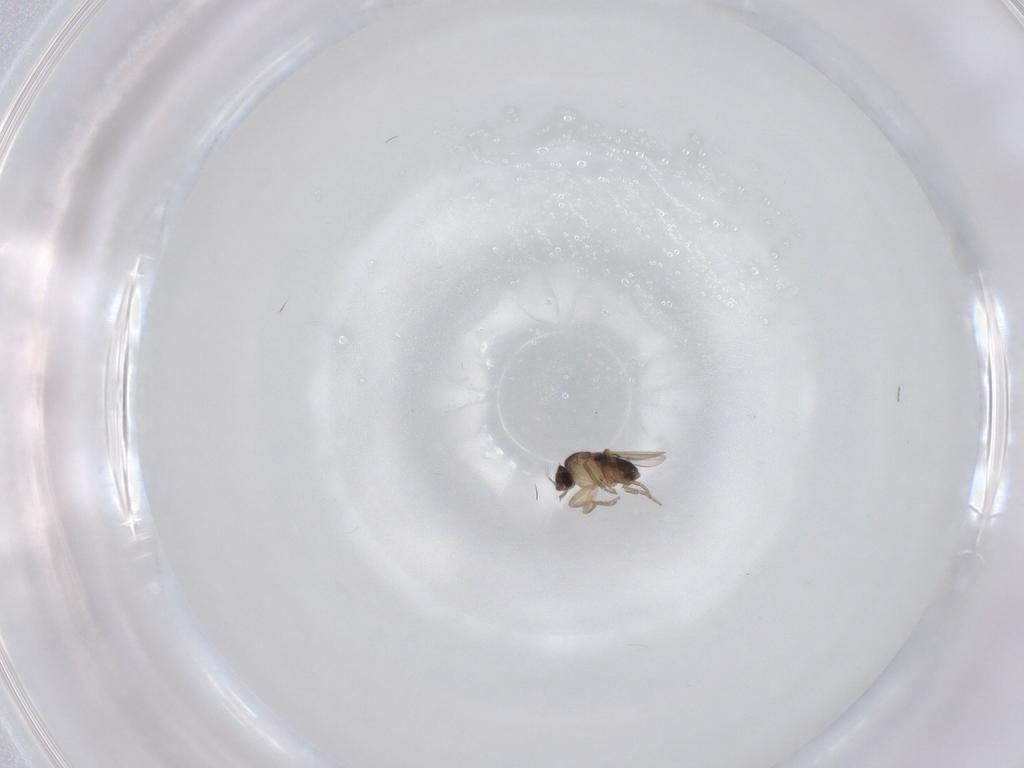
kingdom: Animalia
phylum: Arthropoda
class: Insecta
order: Diptera
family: Phoridae
